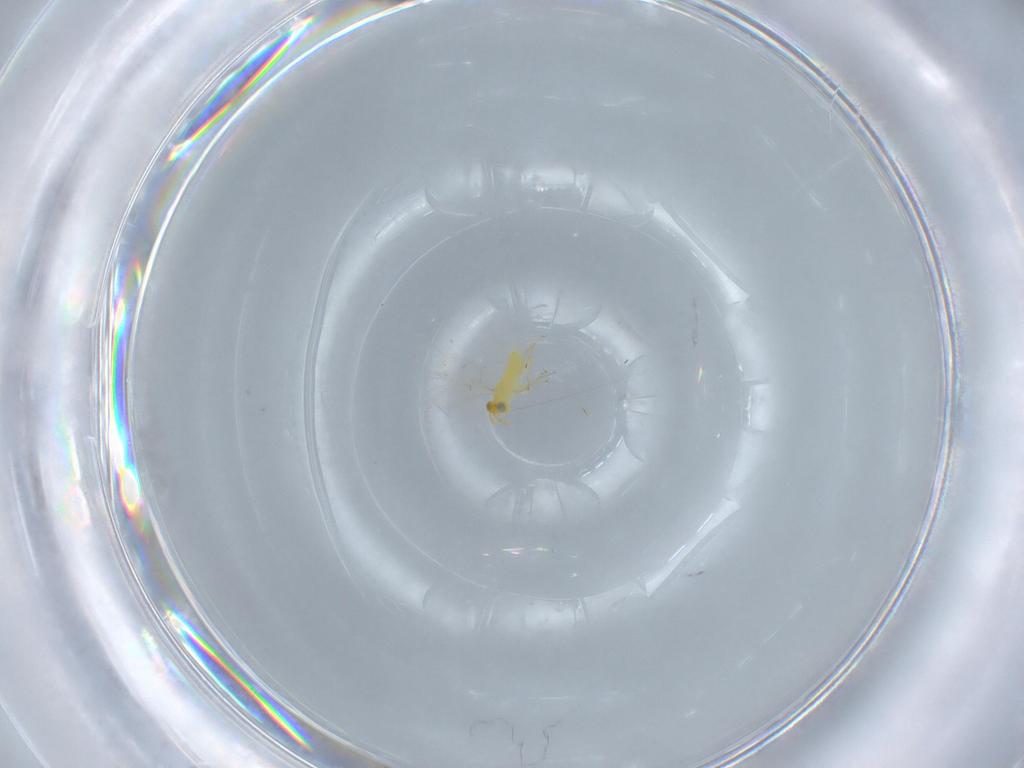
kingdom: Animalia
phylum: Arthropoda
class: Insecta
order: Hymenoptera
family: Aphelinidae
